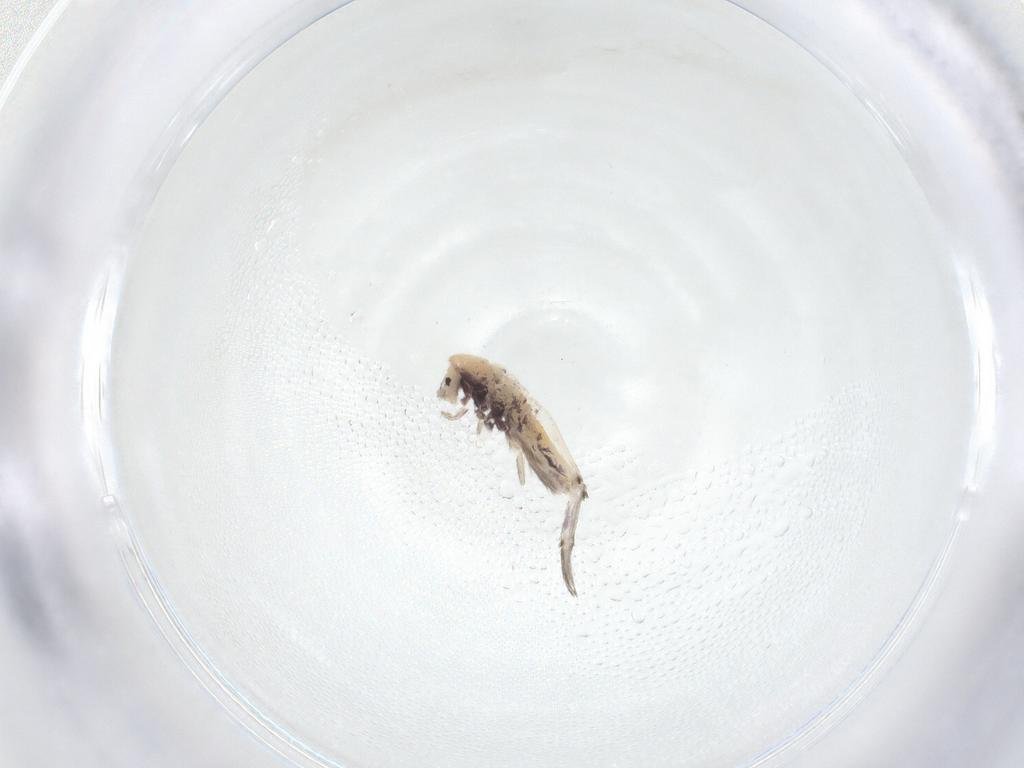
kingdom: Animalia
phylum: Arthropoda
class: Collembola
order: Entomobryomorpha
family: Entomobryidae
